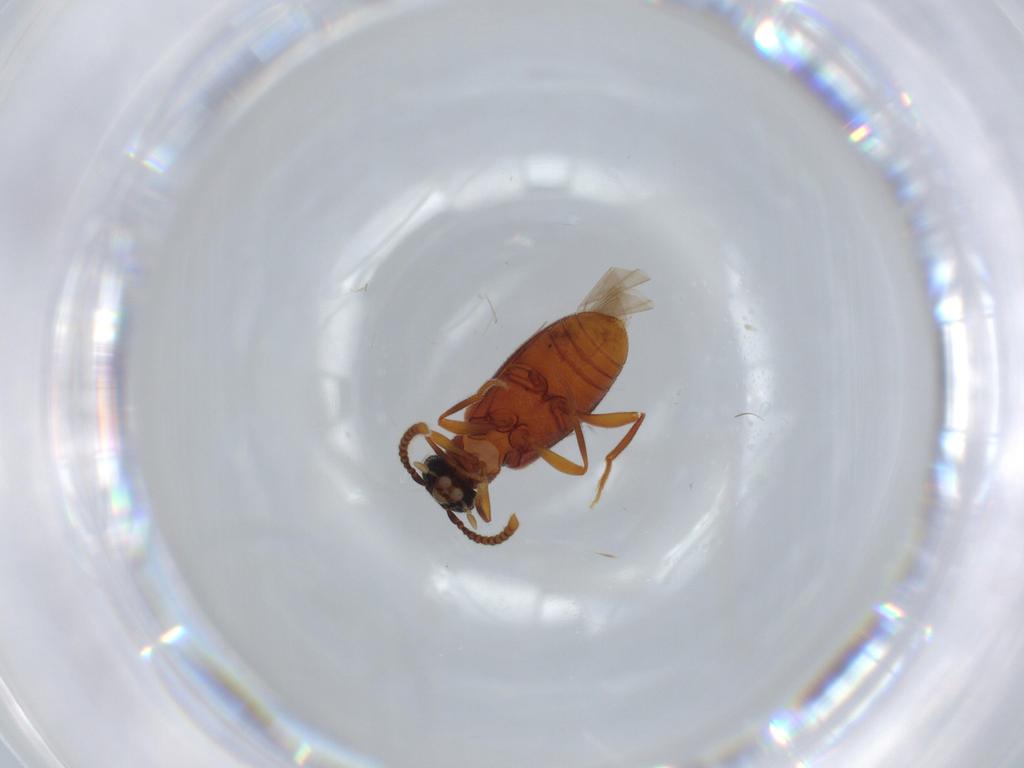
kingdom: Animalia
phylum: Arthropoda
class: Insecta
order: Coleoptera
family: Aderidae
